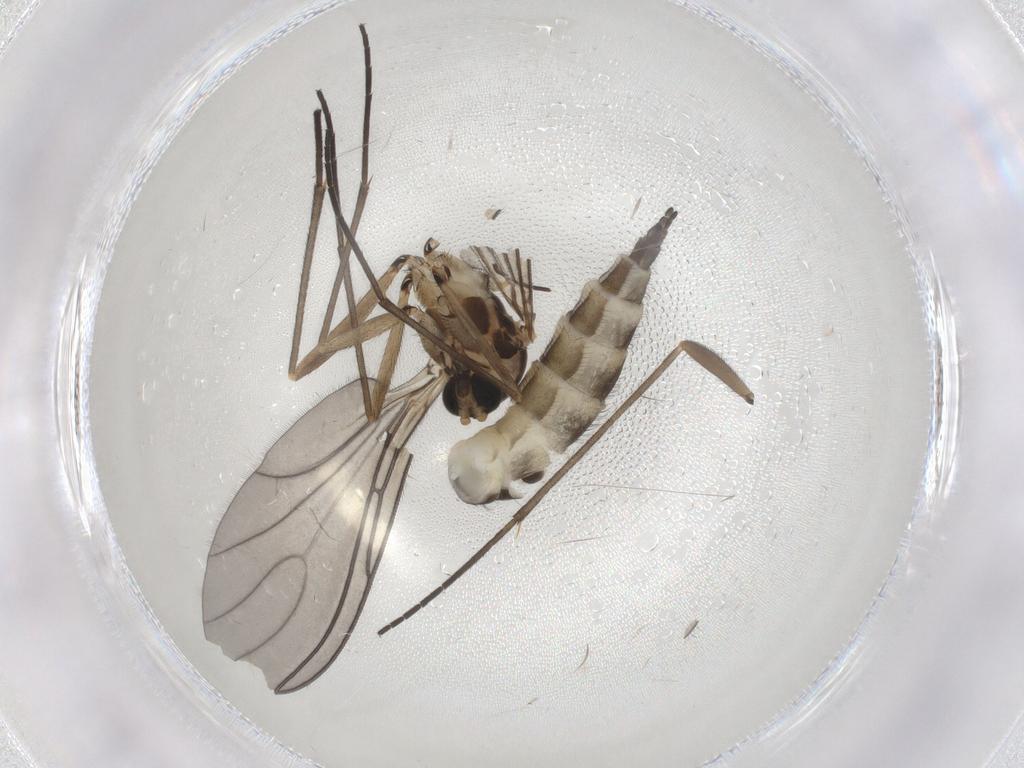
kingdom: Animalia
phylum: Arthropoda
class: Insecta
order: Diptera
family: Sciaridae
